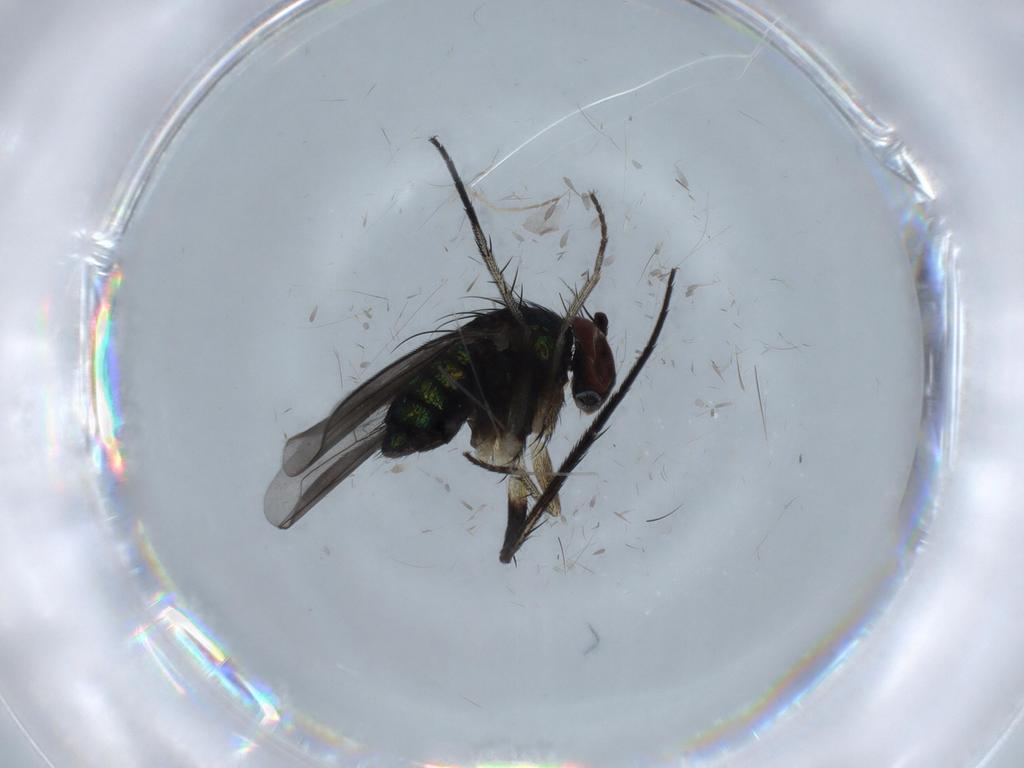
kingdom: Animalia
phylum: Arthropoda
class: Insecta
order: Diptera
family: Dolichopodidae
